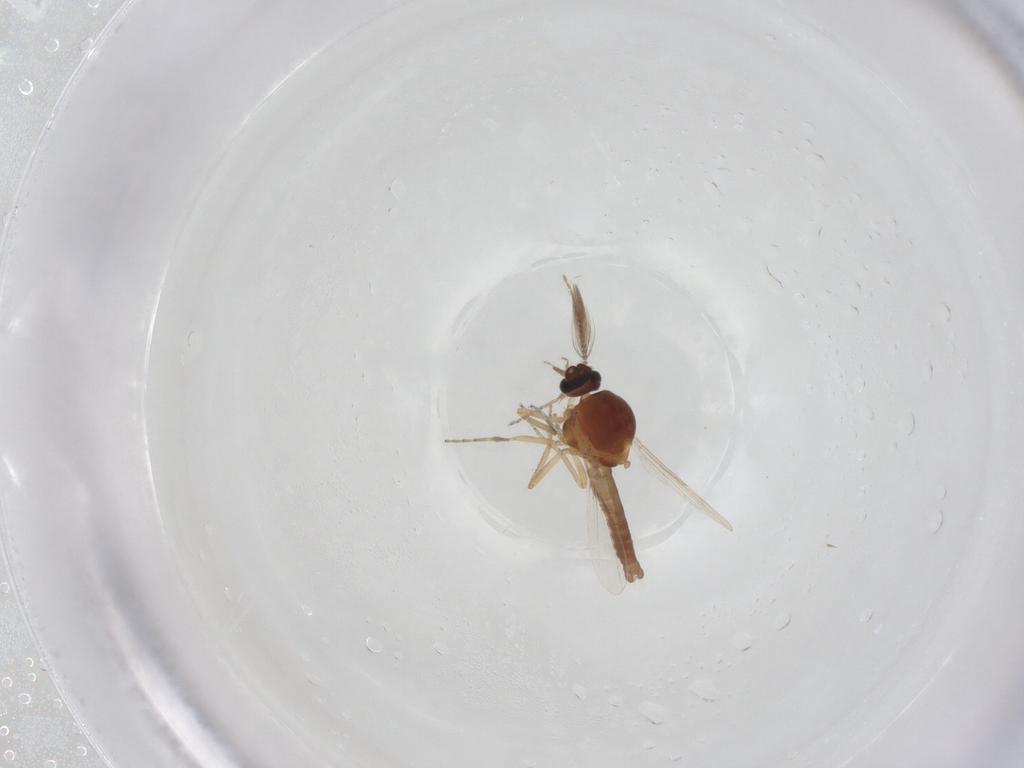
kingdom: Animalia
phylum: Arthropoda
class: Insecta
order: Diptera
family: Ceratopogonidae
